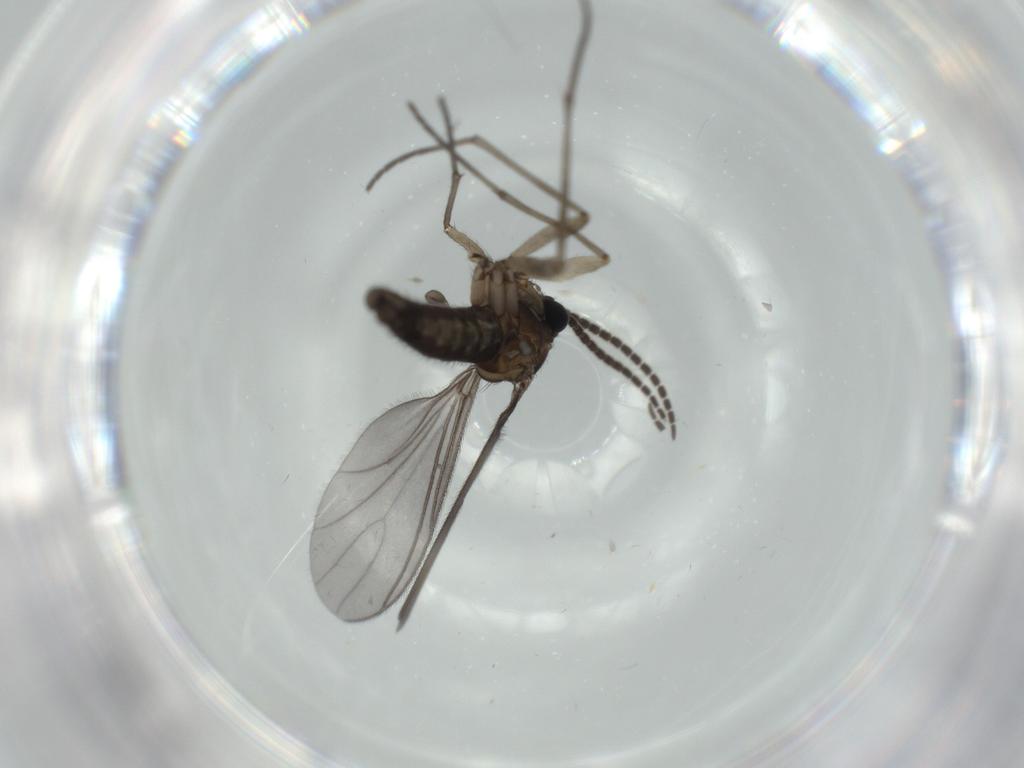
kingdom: Animalia
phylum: Arthropoda
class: Insecta
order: Diptera
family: Sciaridae
